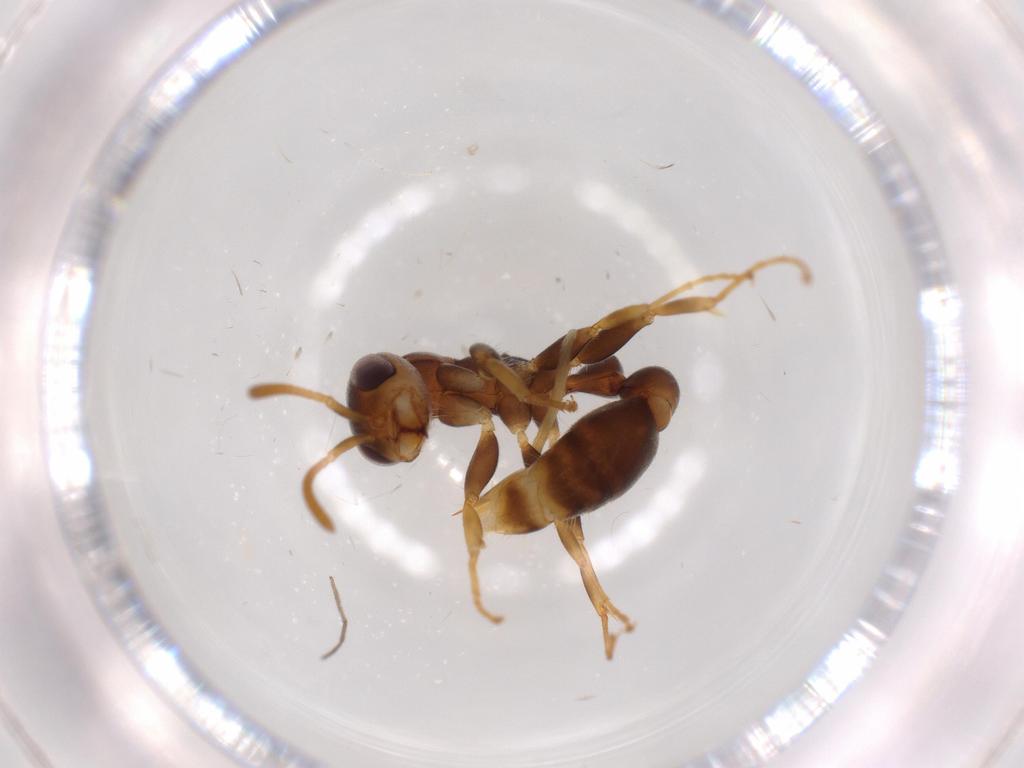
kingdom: Animalia
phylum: Arthropoda
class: Insecta
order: Hymenoptera
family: Formicidae
